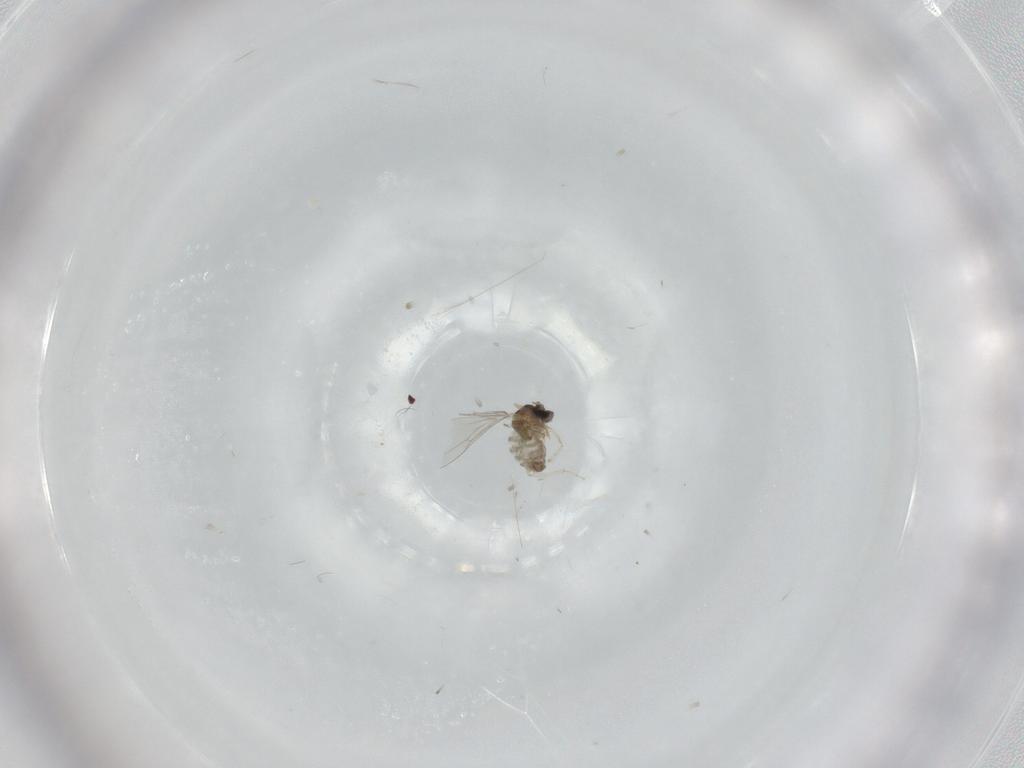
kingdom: Animalia
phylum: Arthropoda
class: Insecta
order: Diptera
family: Cecidomyiidae
